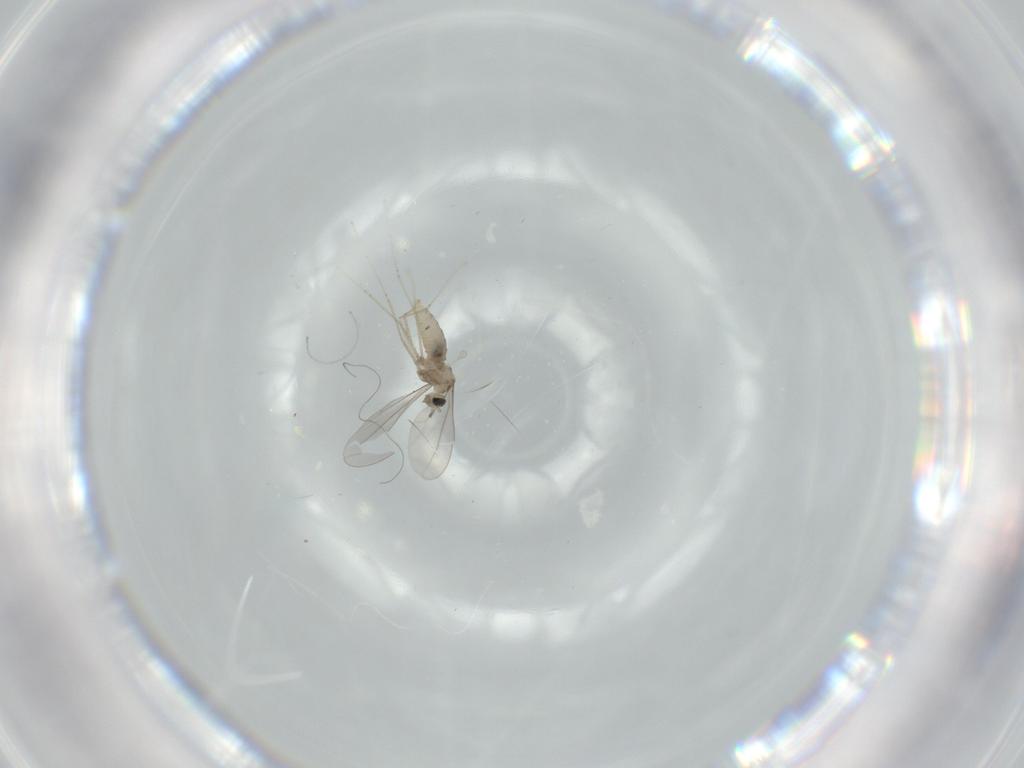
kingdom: Animalia
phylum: Arthropoda
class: Insecta
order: Diptera
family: Cecidomyiidae
